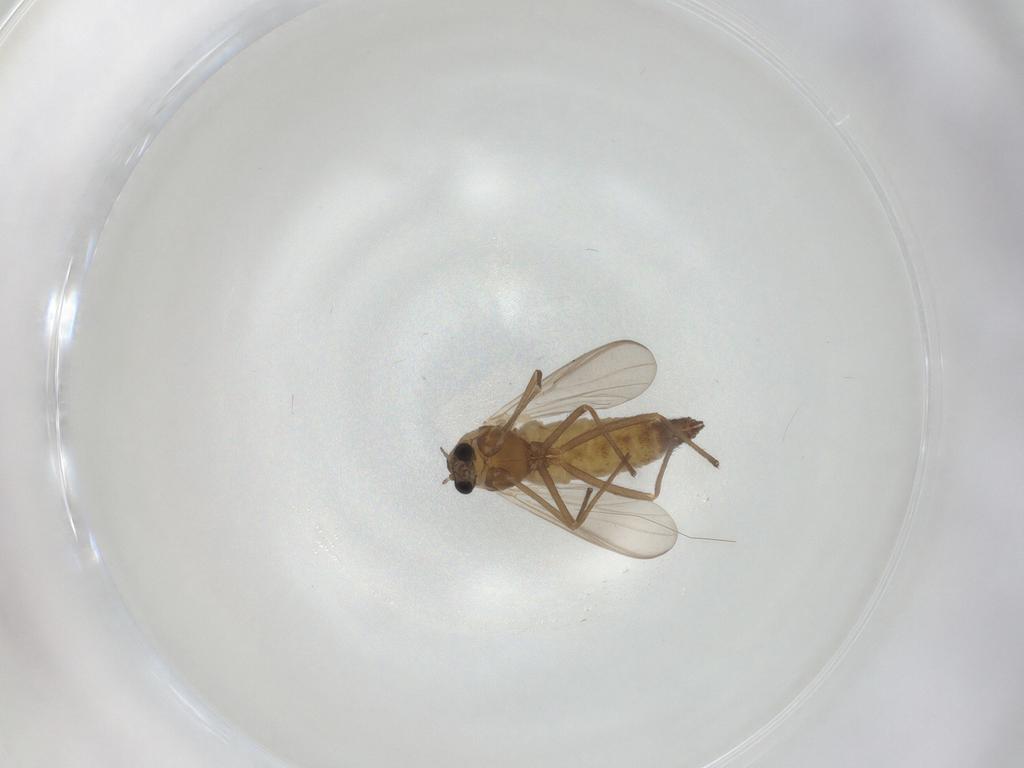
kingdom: Animalia
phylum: Arthropoda
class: Insecta
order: Diptera
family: Chironomidae
